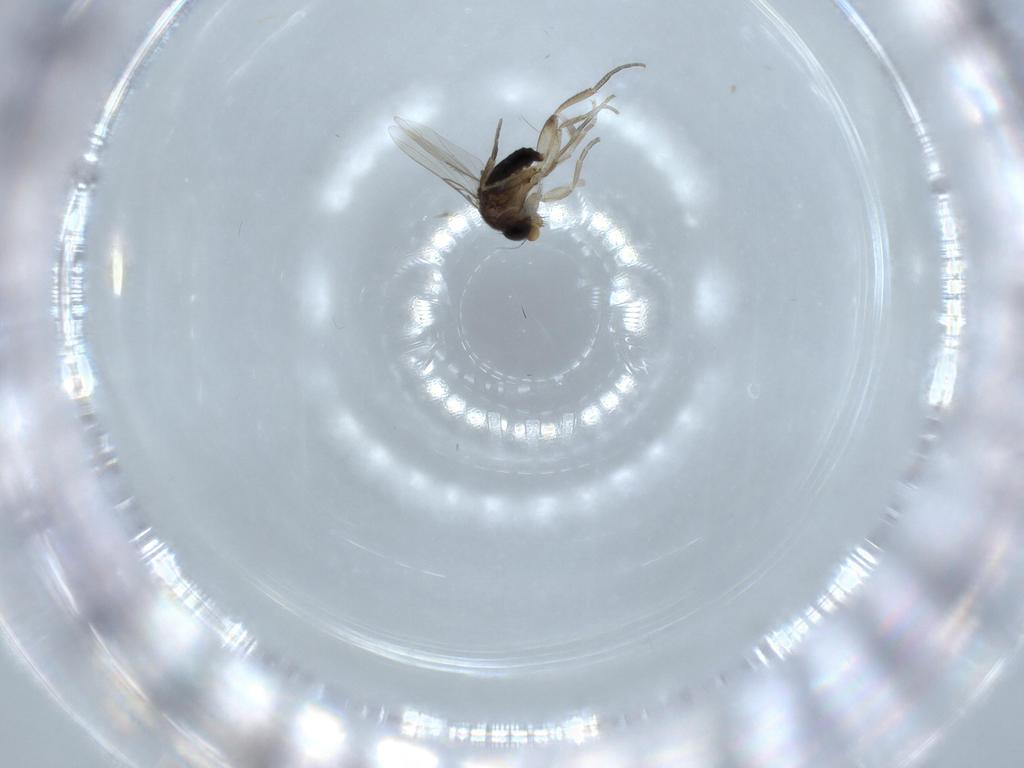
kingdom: Animalia
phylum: Arthropoda
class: Insecta
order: Diptera
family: Phoridae
